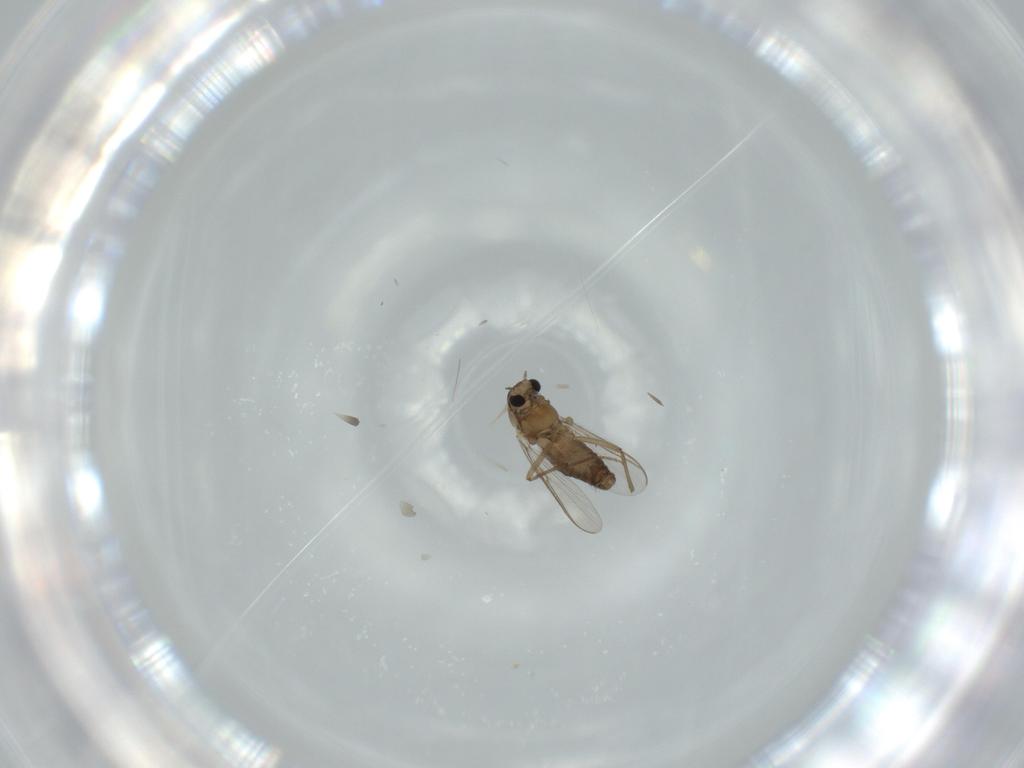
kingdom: Animalia
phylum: Arthropoda
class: Insecta
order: Diptera
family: Chironomidae
